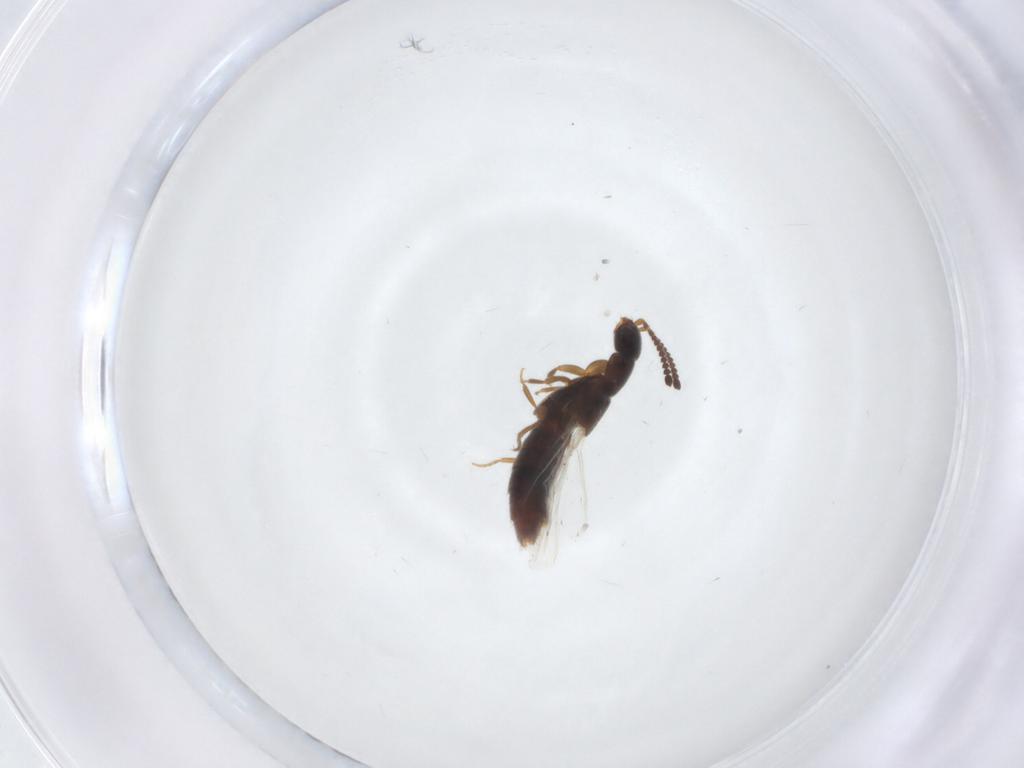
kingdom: Animalia
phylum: Arthropoda
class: Insecta
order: Coleoptera
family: Staphylinidae
